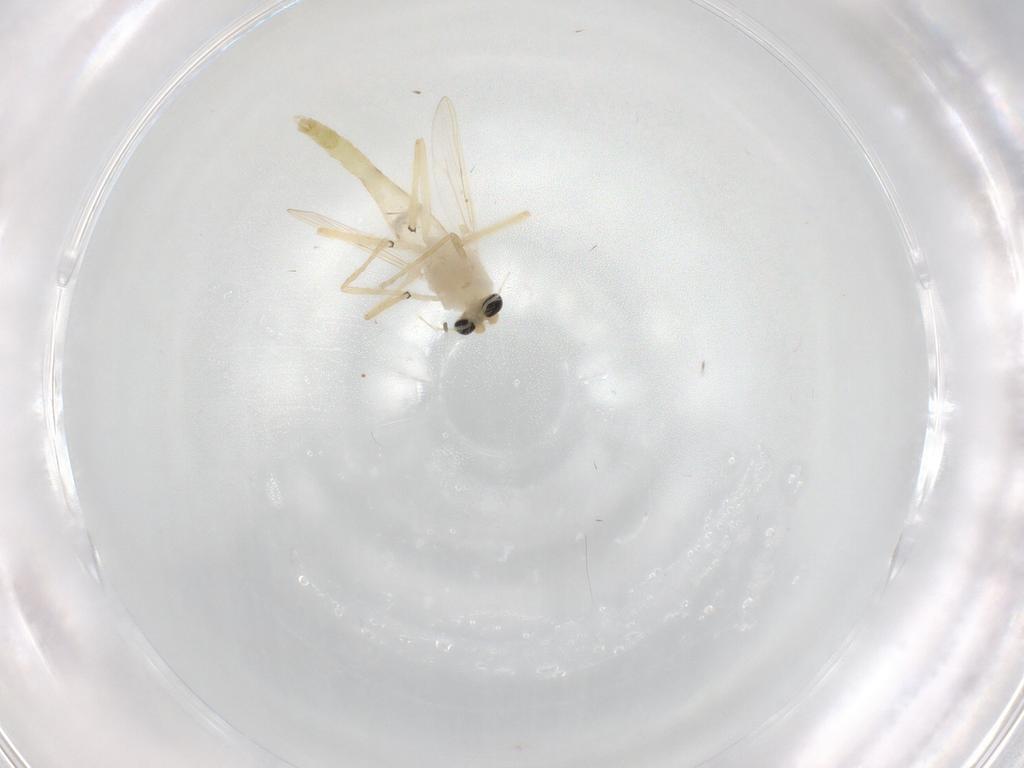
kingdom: Animalia
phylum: Arthropoda
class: Insecta
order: Diptera
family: Chironomidae
